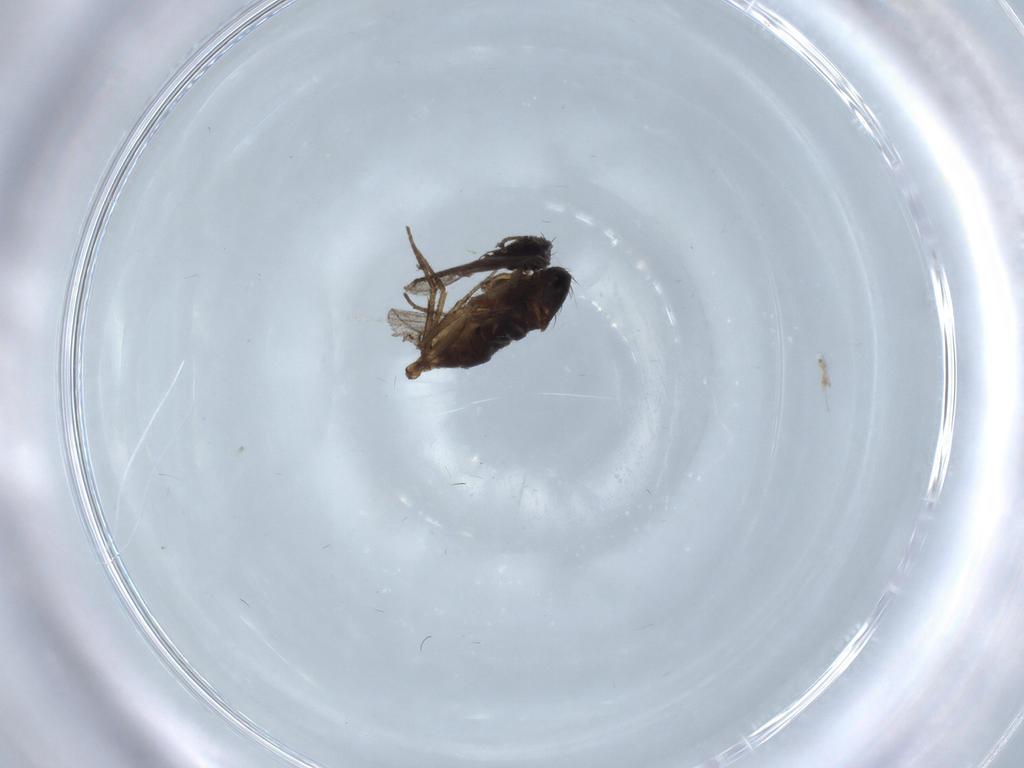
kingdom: Animalia
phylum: Arthropoda
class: Insecta
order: Diptera
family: Dolichopodidae
